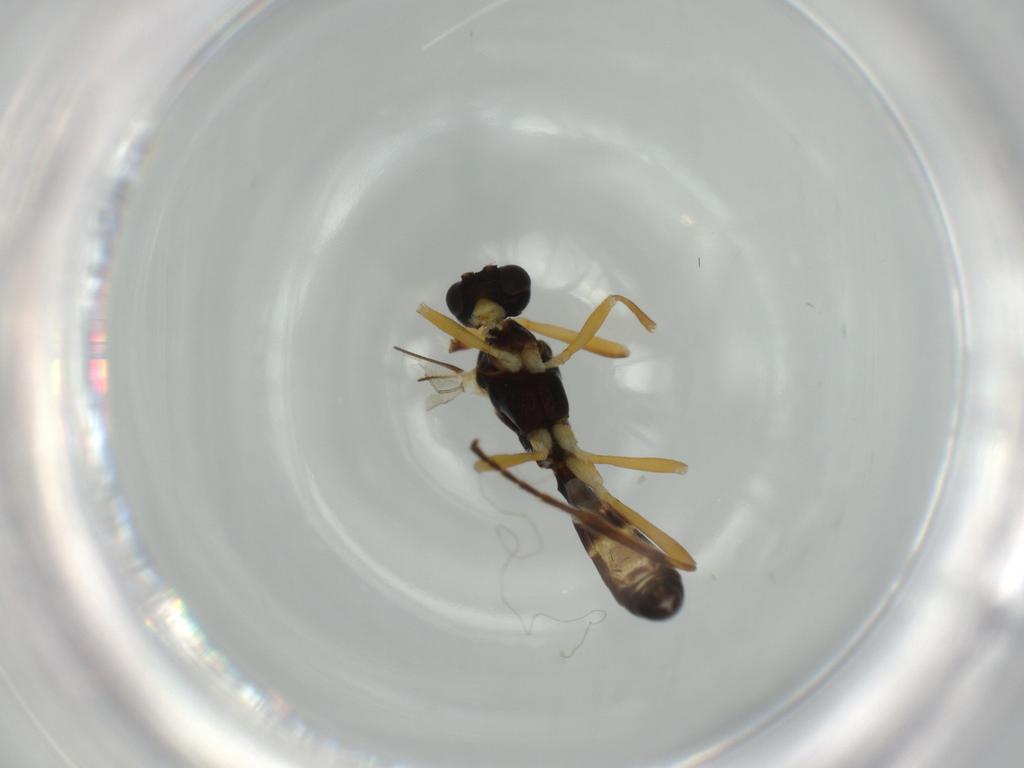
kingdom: Animalia
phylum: Arthropoda
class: Insecta
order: Hymenoptera
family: Ichneumonidae
